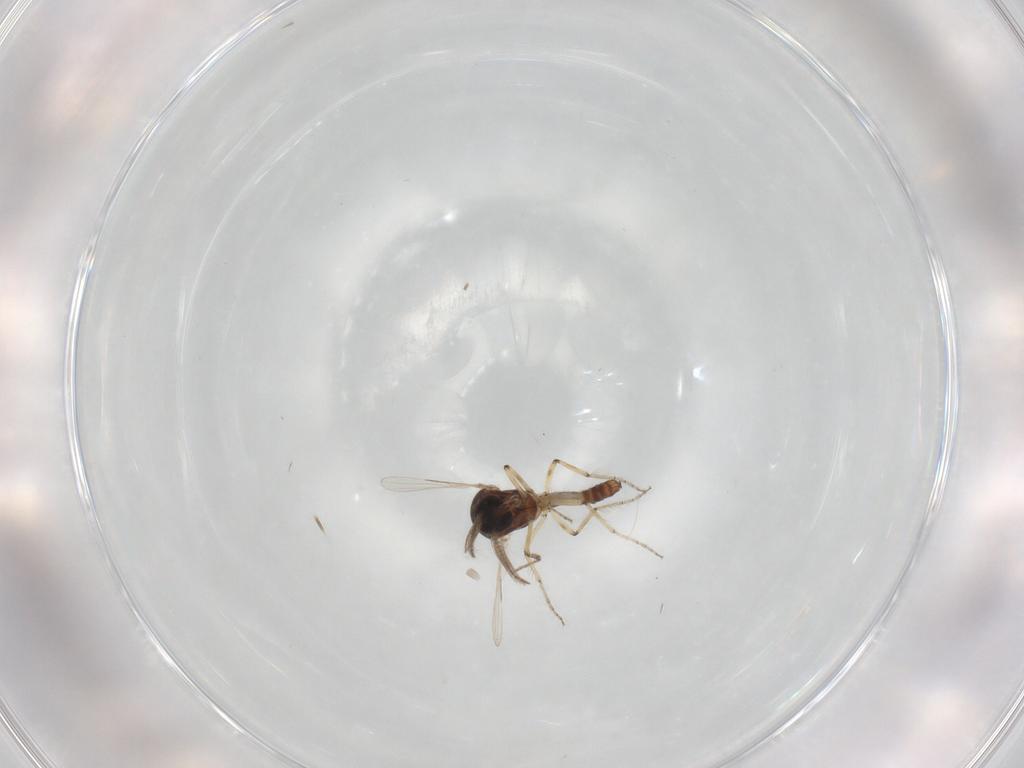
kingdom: Animalia
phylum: Arthropoda
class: Insecta
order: Diptera
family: Ceratopogonidae
